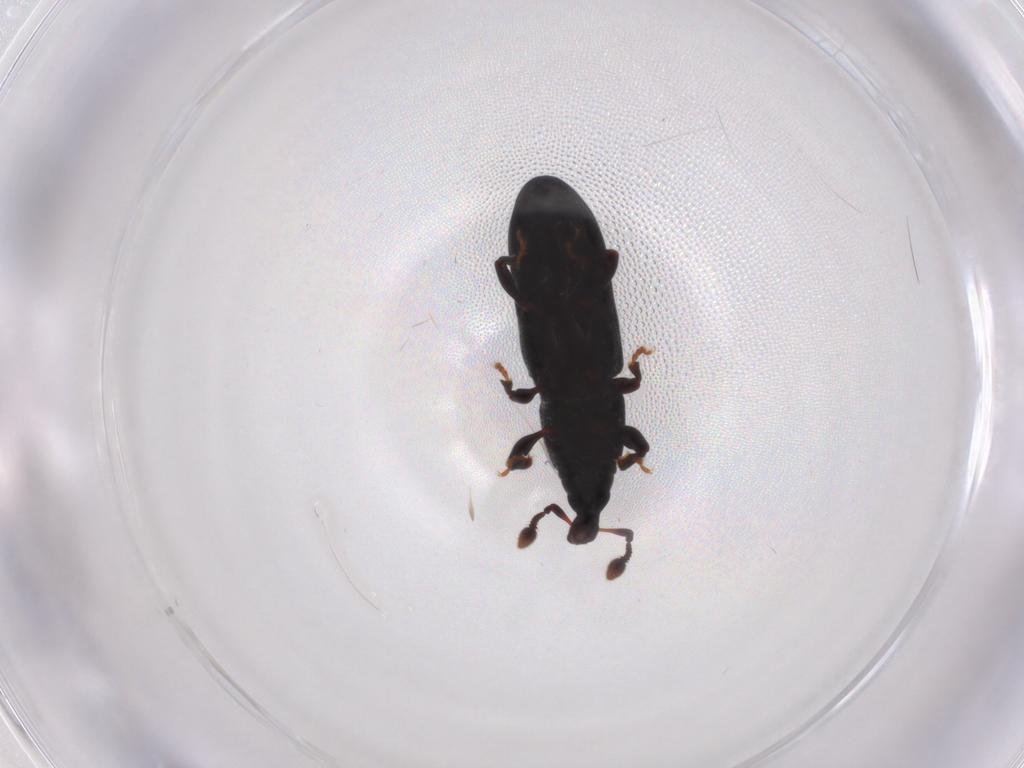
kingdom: Animalia
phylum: Arthropoda
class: Insecta
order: Coleoptera
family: Curculionidae
